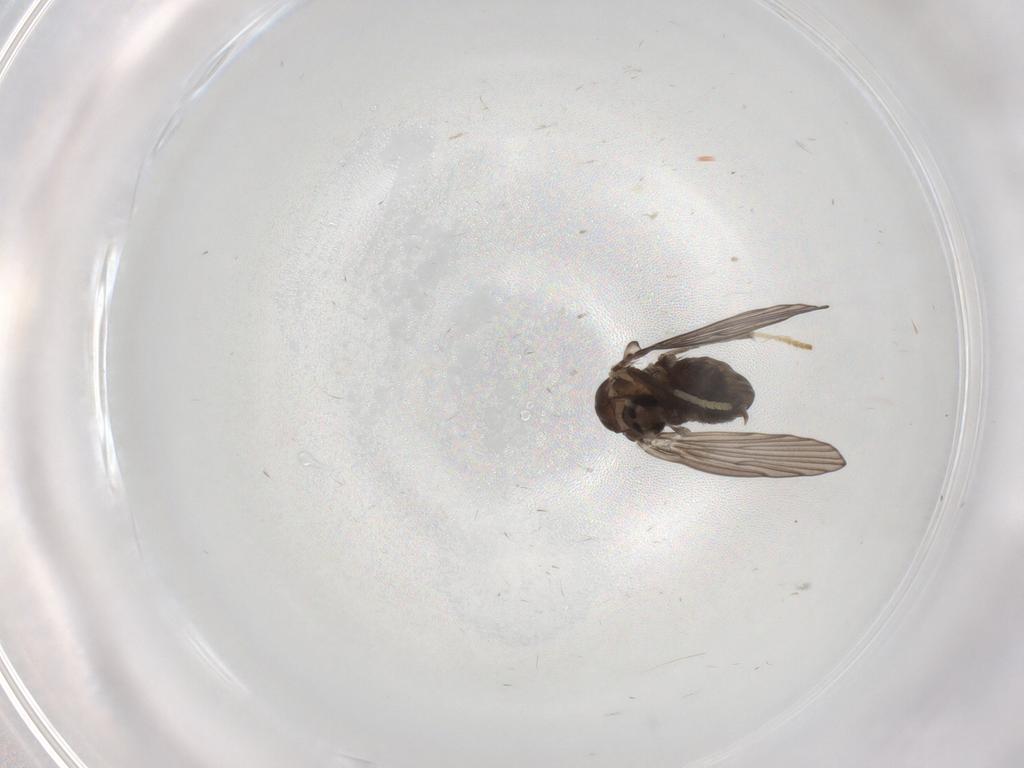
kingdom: Animalia
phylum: Arthropoda
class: Insecta
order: Diptera
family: Psychodidae
